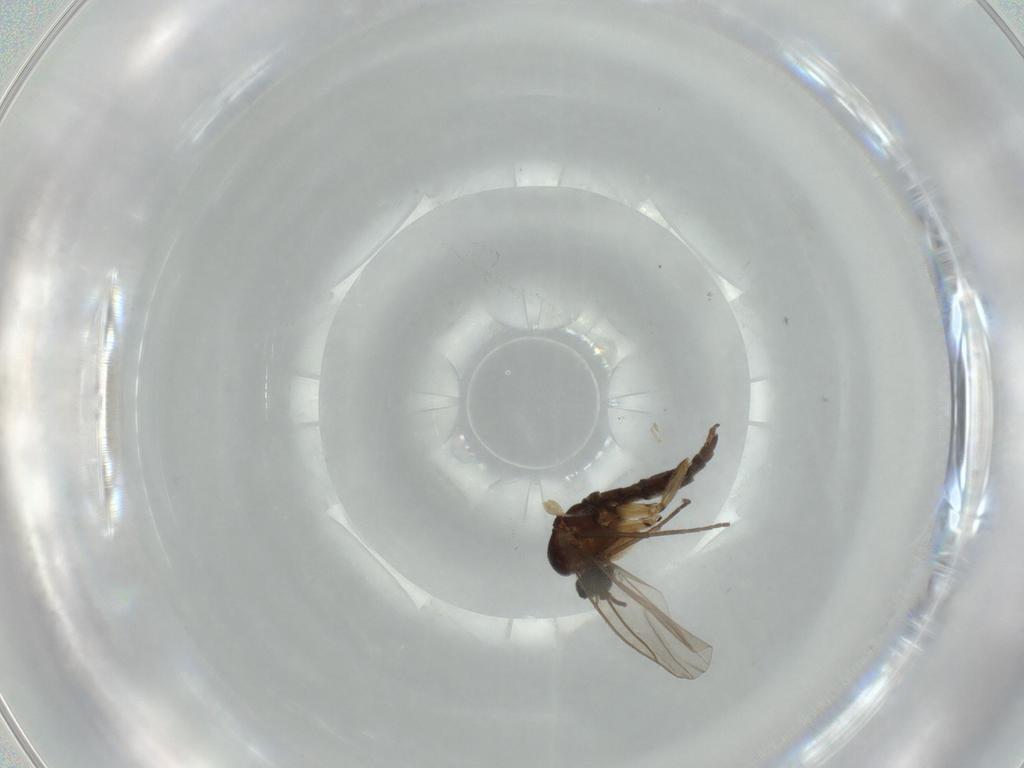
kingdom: Animalia
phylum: Arthropoda
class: Insecta
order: Diptera
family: Sciaridae
